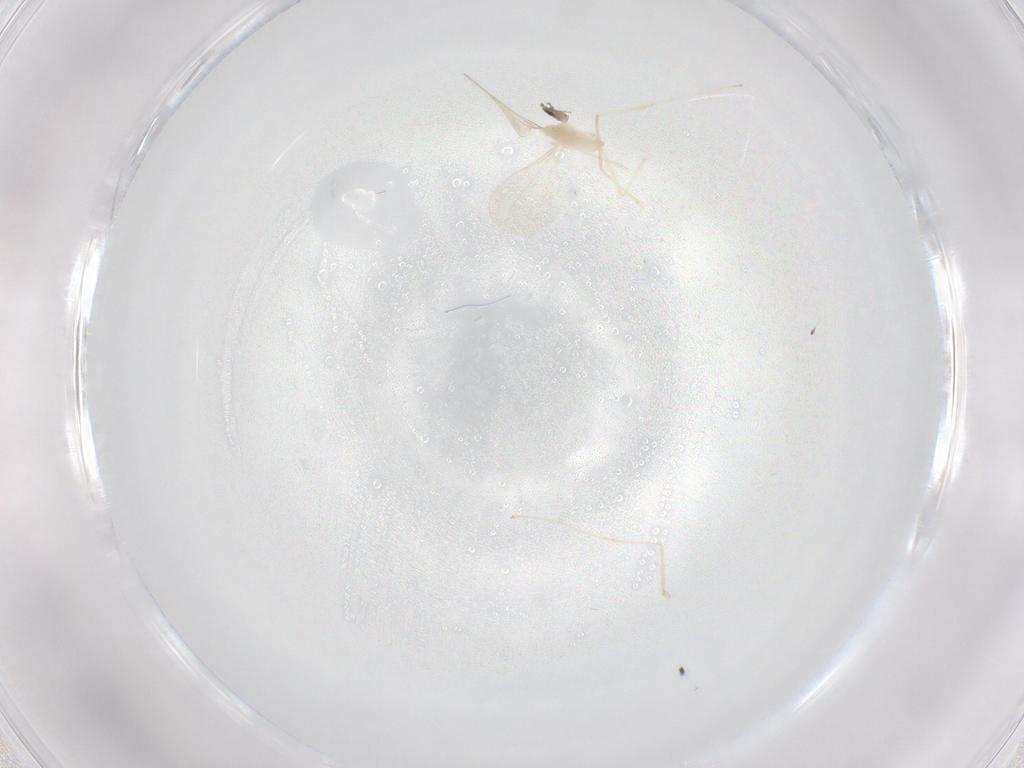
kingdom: Animalia
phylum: Arthropoda
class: Insecta
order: Diptera
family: Cecidomyiidae
